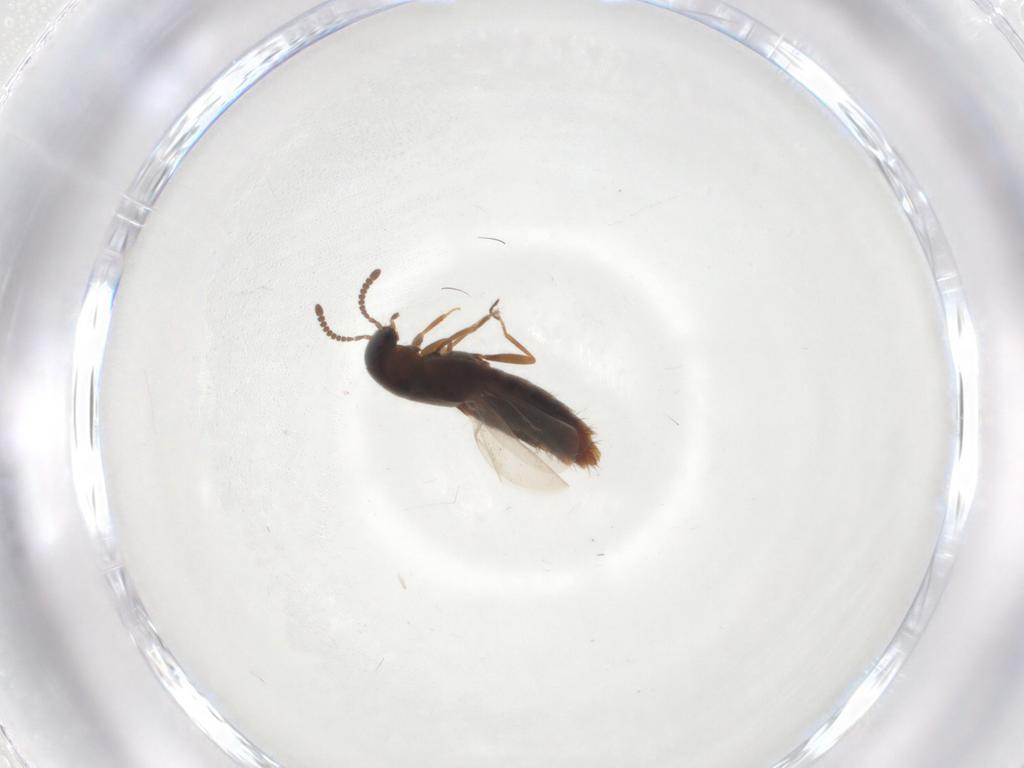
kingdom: Animalia
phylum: Arthropoda
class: Insecta
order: Coleoptera
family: Staphylinidae
